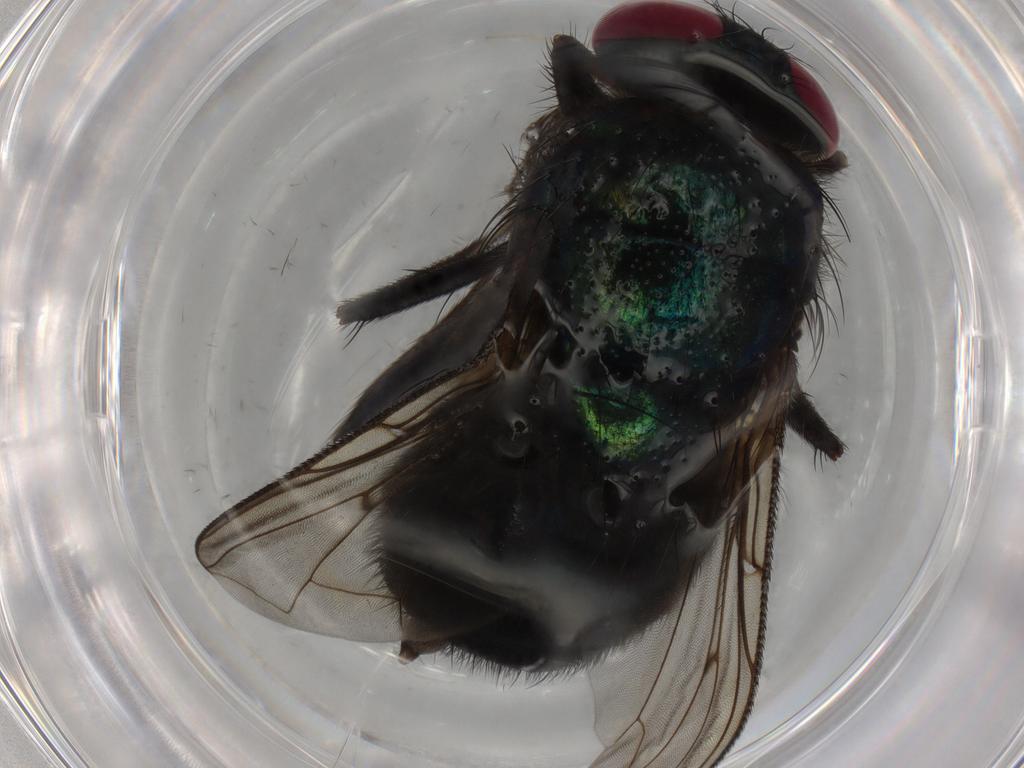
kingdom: Animalia
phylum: Arthropoda
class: Insecta
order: Diptera
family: Calliphoridae
